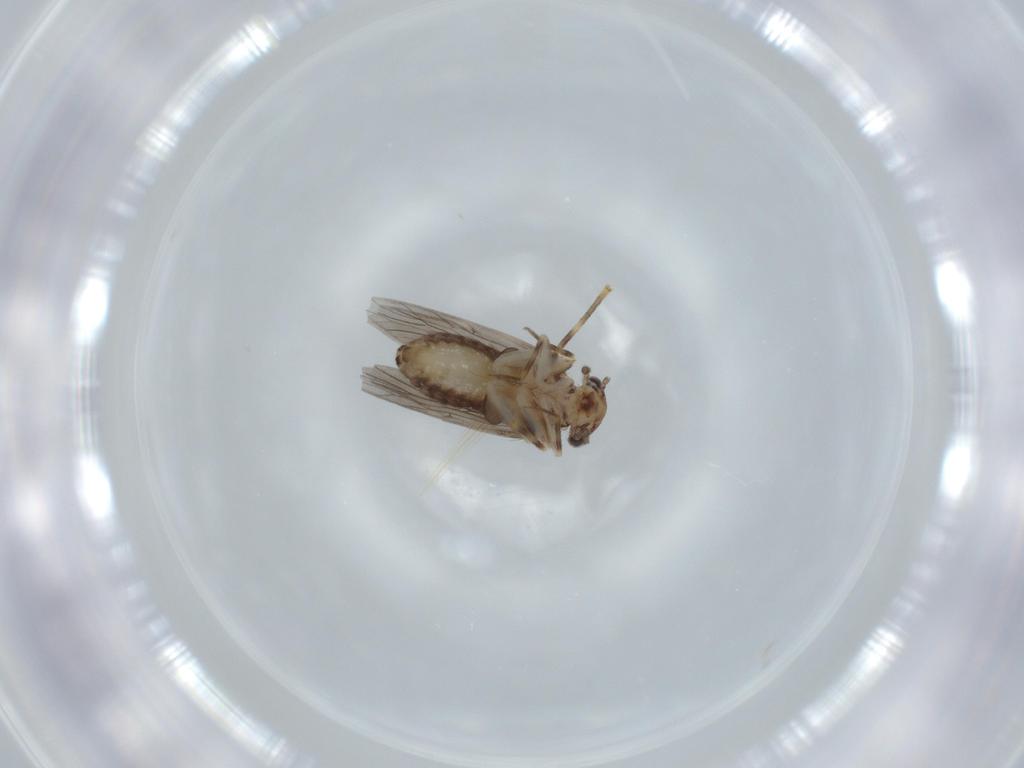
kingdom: Animalia
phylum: Arthropoda
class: Insecta
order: Psocodea
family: Lepidopsocidae
